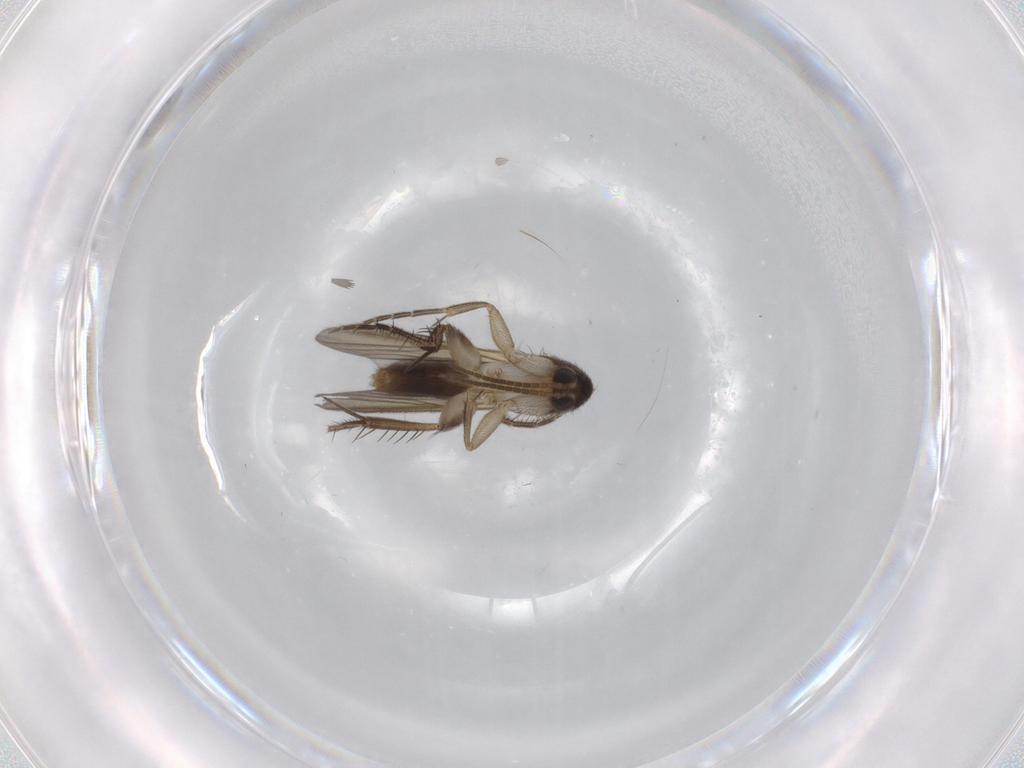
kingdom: Animalia
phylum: Arthropoda
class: Insecta
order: Diptera
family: Mycetophilidae
